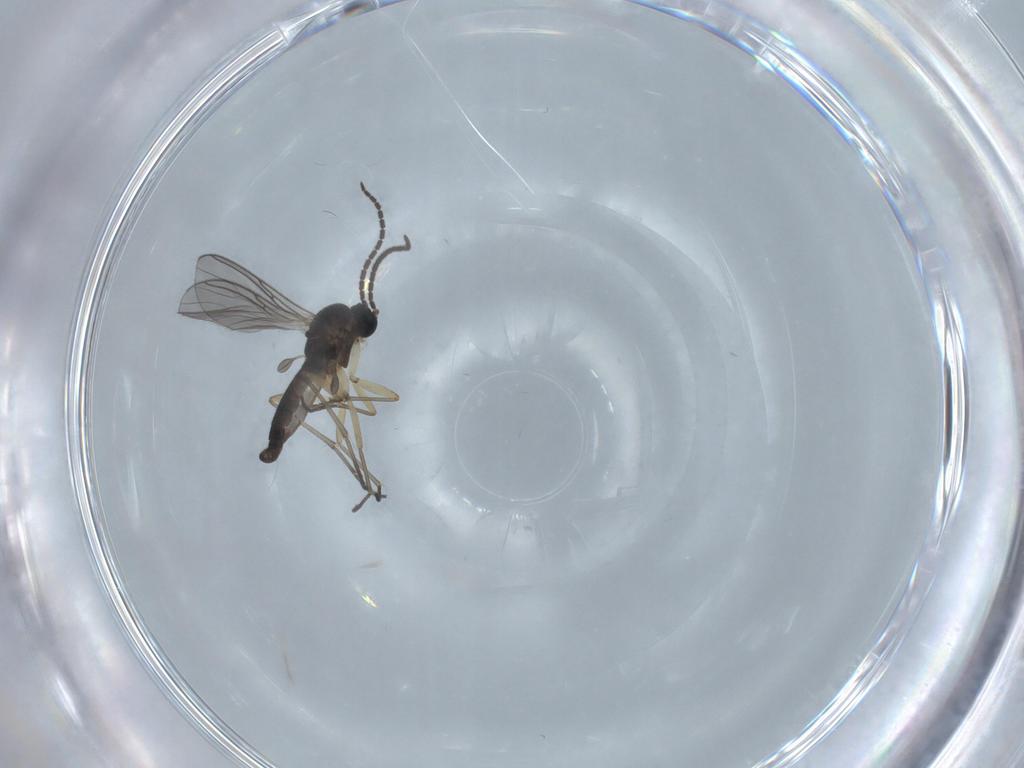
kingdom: Animalia
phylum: Arthropoda
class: Insecta
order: Diptera
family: Sciaridae
